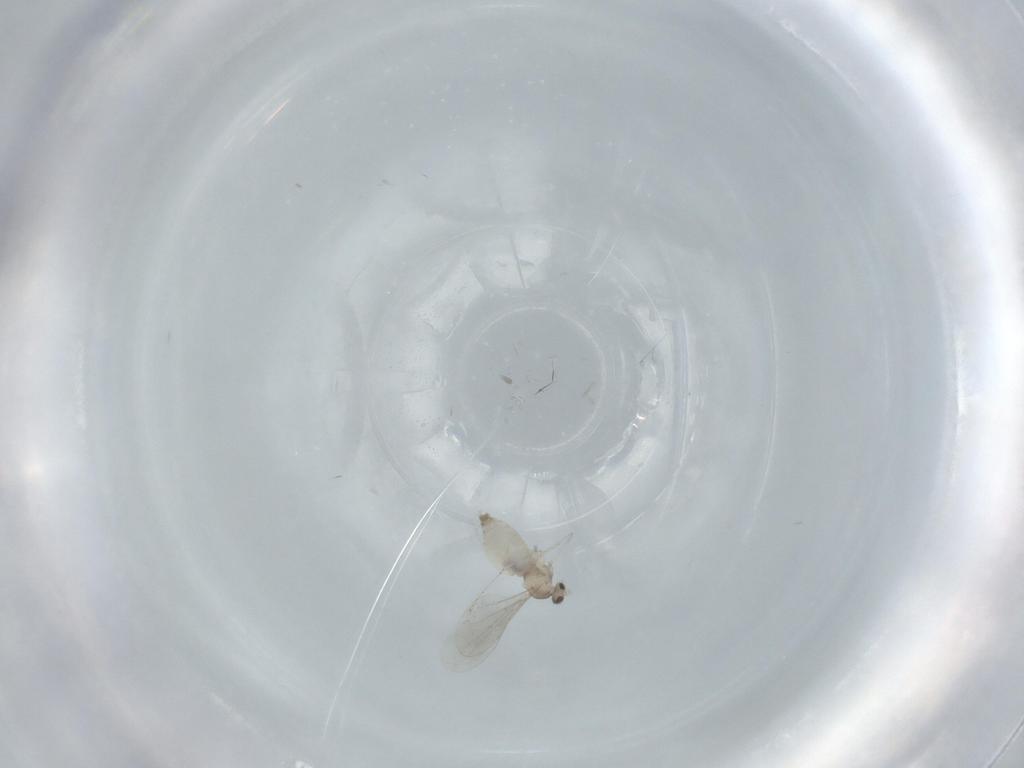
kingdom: Animalia
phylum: Arthropoda
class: Insecta
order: Diptera
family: Cecidomyiidae
